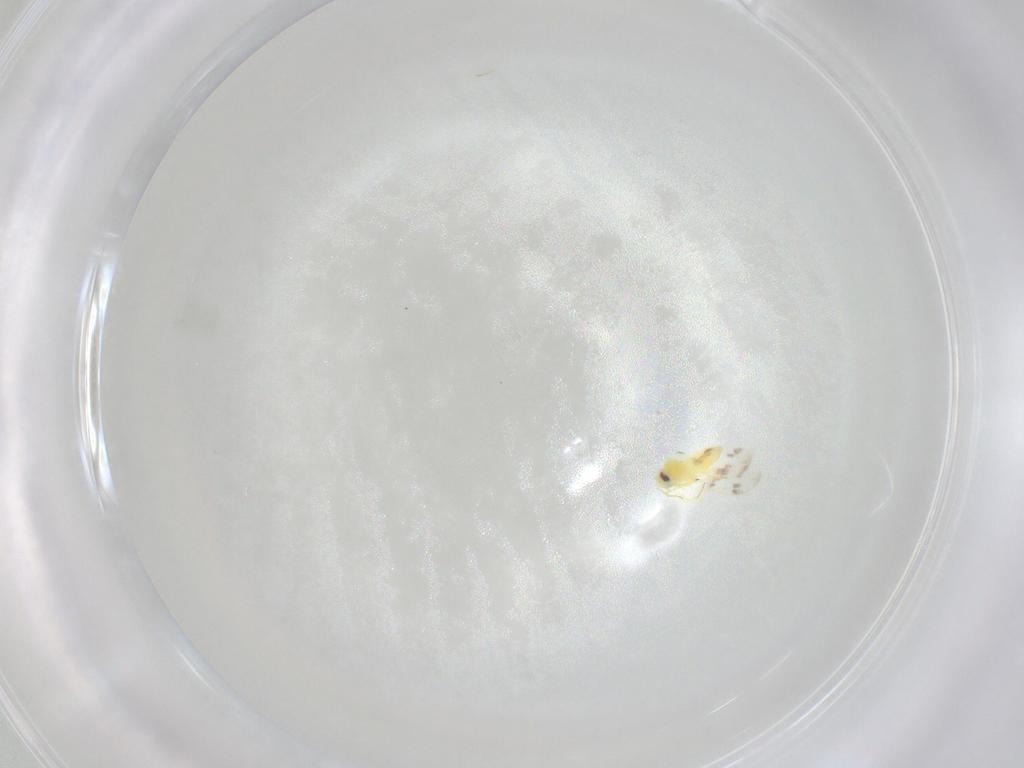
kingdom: Animalia
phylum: Arthropoda
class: Insecta
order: Hemiptera
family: Aleyrodidae
